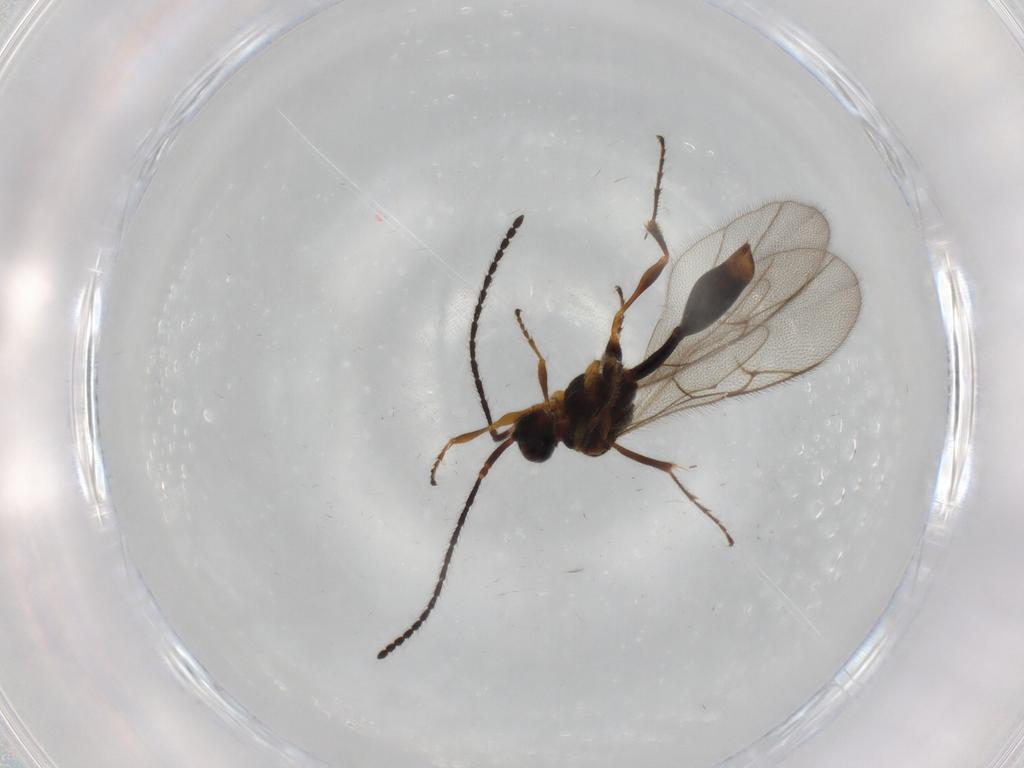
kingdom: Animalia
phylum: Arthropoda
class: Insecta
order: Hymenoptera
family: Diapriidae
